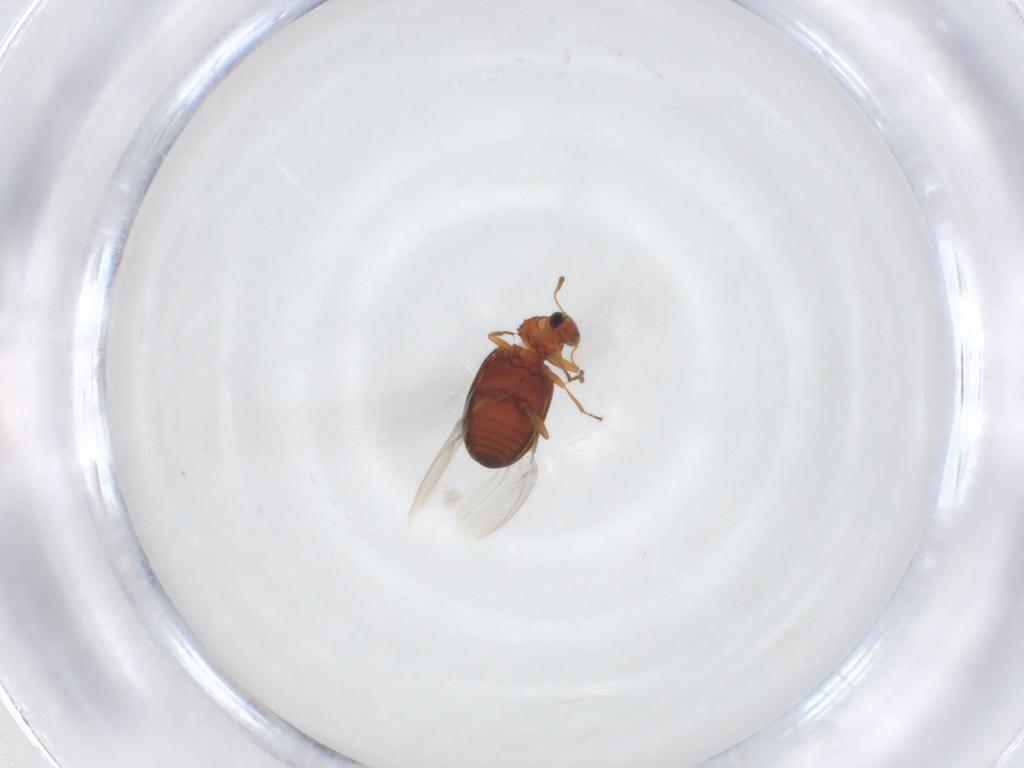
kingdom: Animalia
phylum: Arthropoda
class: Insecta
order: Coleoptera
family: Latridiidae
